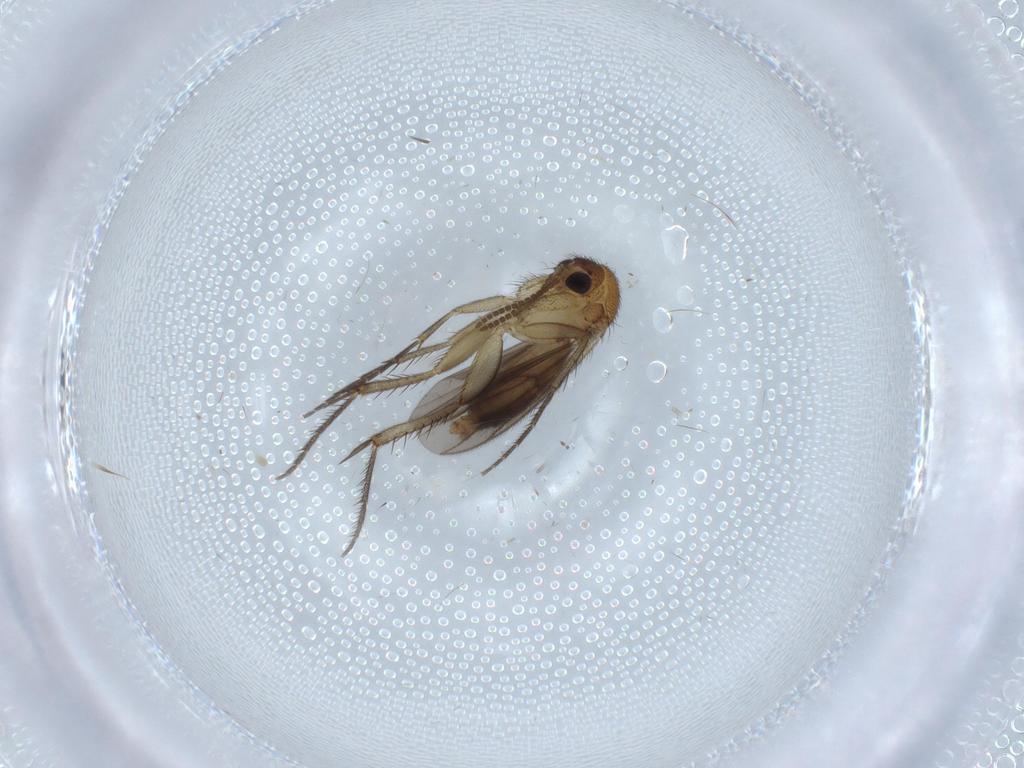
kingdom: Animalia
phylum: Arthropoda
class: Insecta
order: Diptera
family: Mycetophilidae
